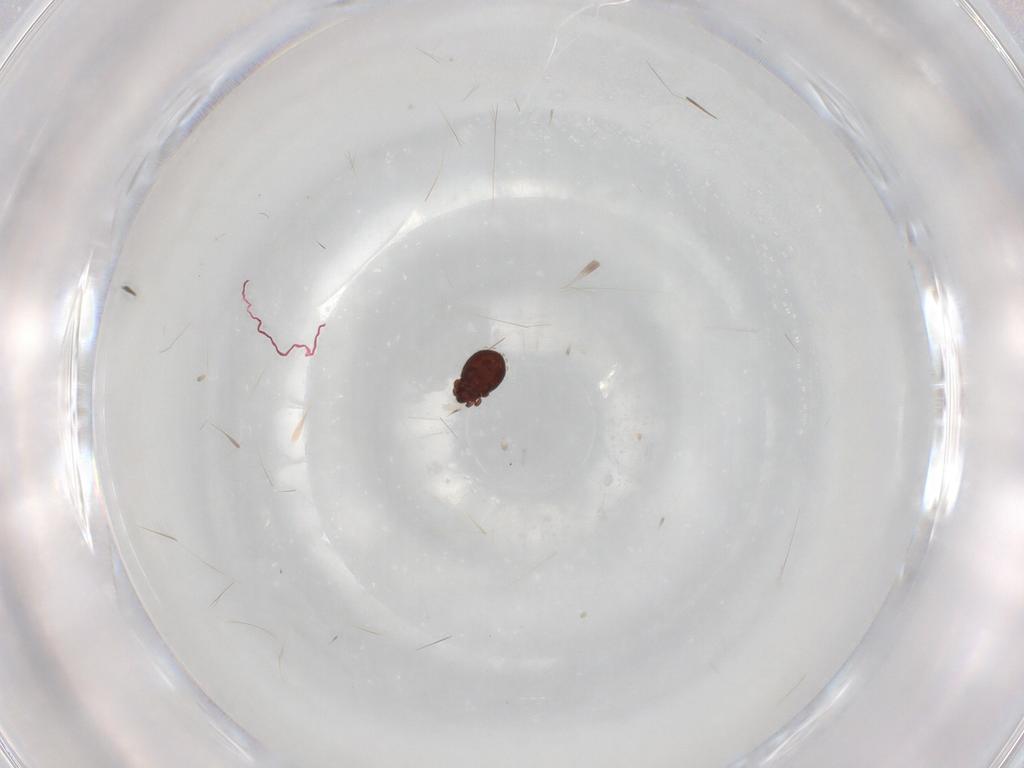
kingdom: Animalia
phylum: Arthropoda
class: Arachnida
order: Sarcoptiformes
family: Scheloribatidae
